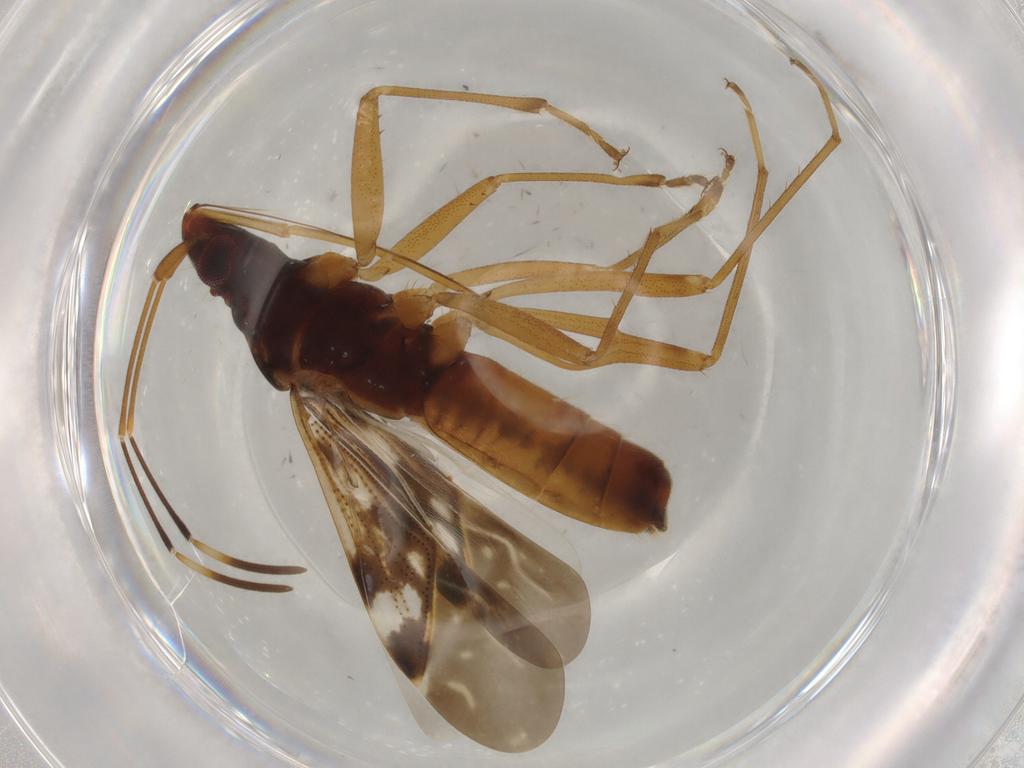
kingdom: Animalia
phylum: Arthropoda
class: Insecta
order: Hemiptera
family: Rhyparochromidae
